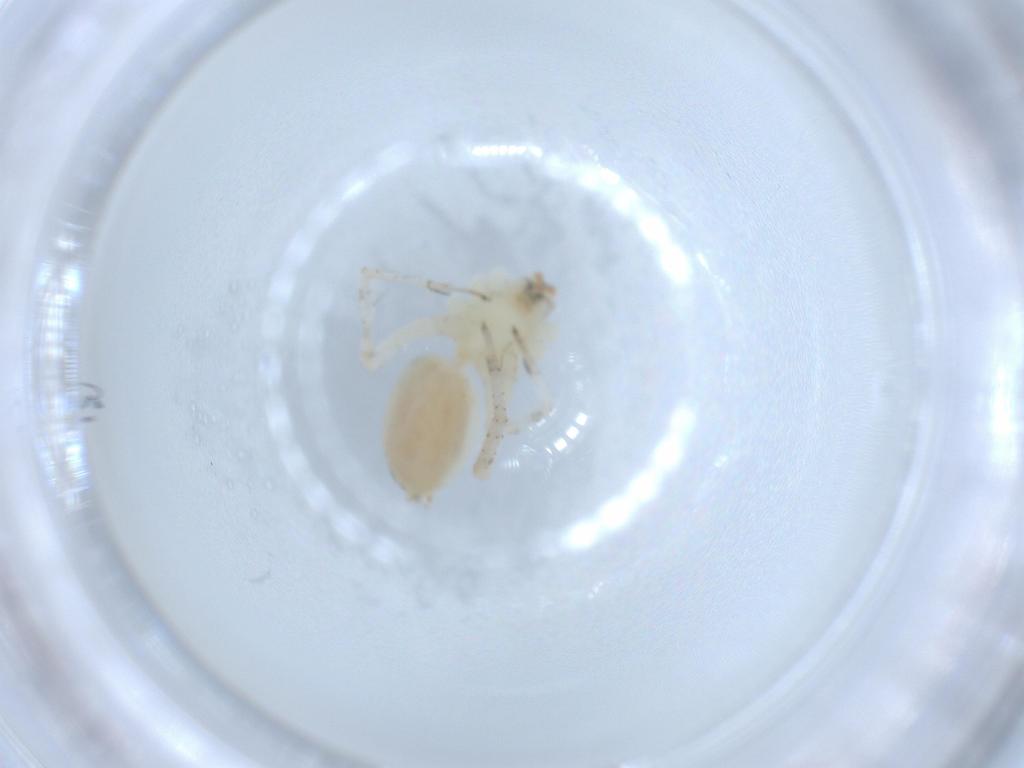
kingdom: Animalia
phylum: Arthropoda
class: Arachnida
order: Araneae
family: Anyphaenidae
